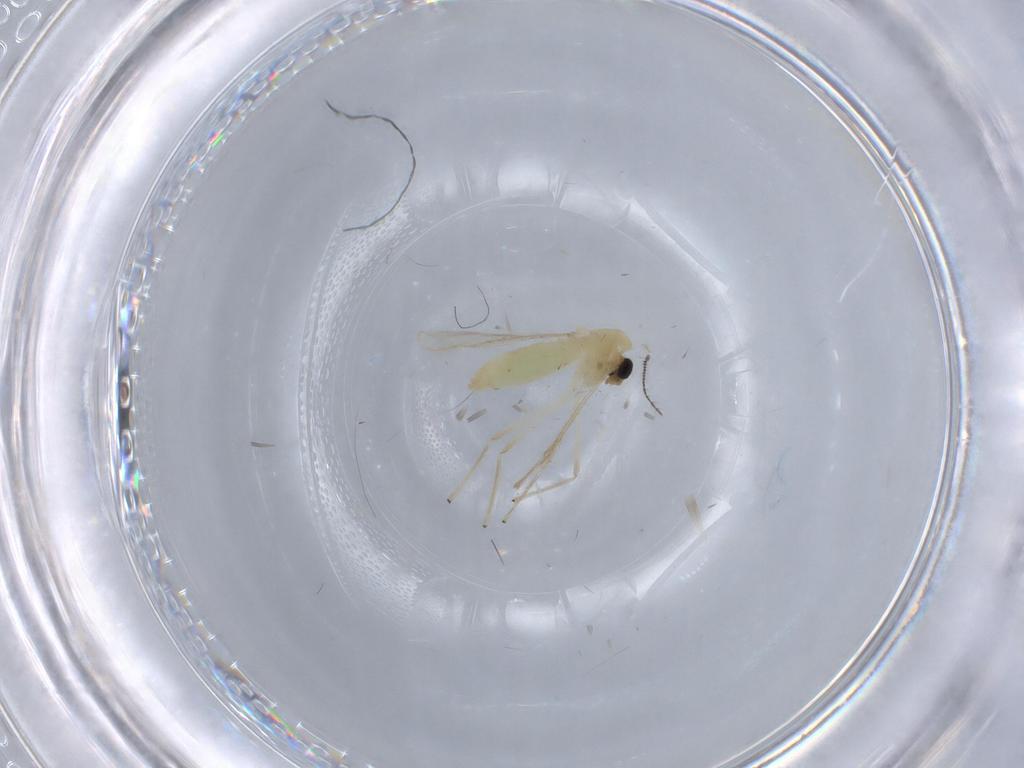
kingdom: Animalia
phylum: Arthropoda
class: Insecta
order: Diptera
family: Chironomidae
